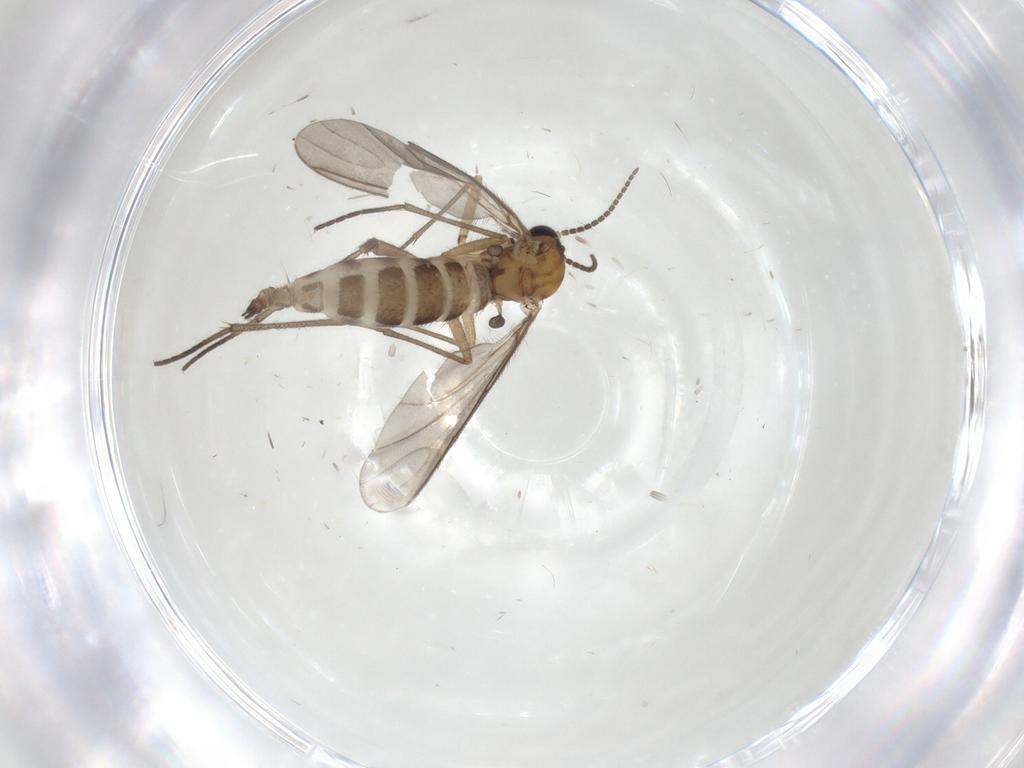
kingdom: Animalia
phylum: Arthropoda
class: Insecta
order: Diptera
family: Sciaridae
